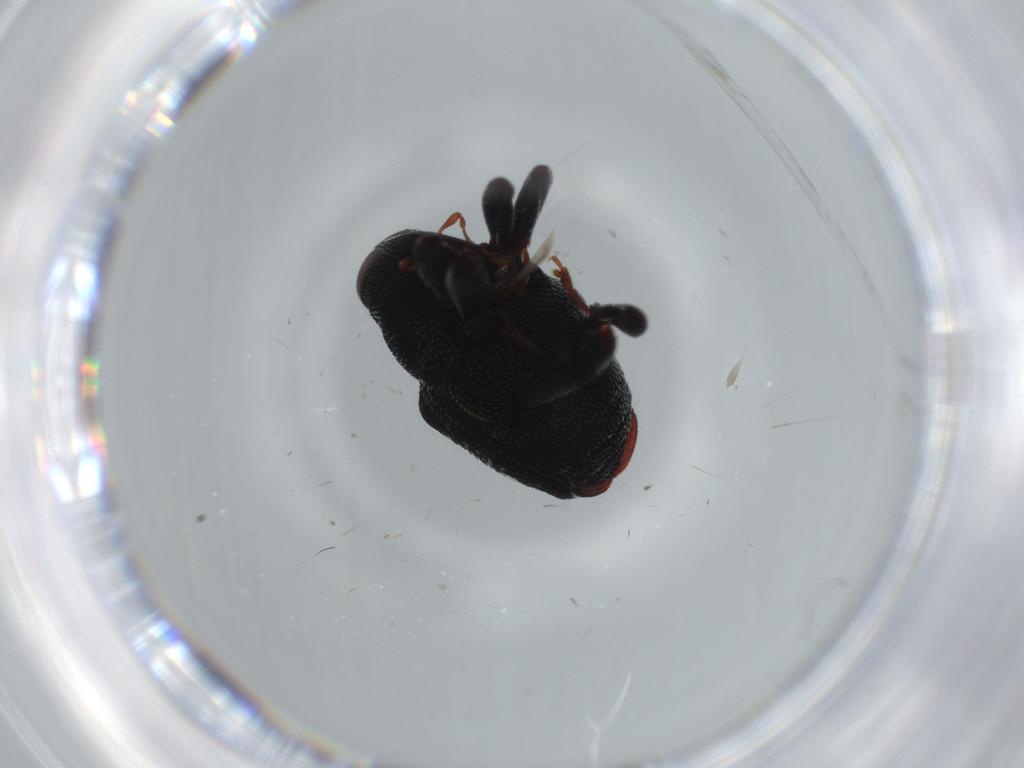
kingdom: Animalia
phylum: Arthropoda
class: Insecta
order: Coleoptera
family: Curculionidae
